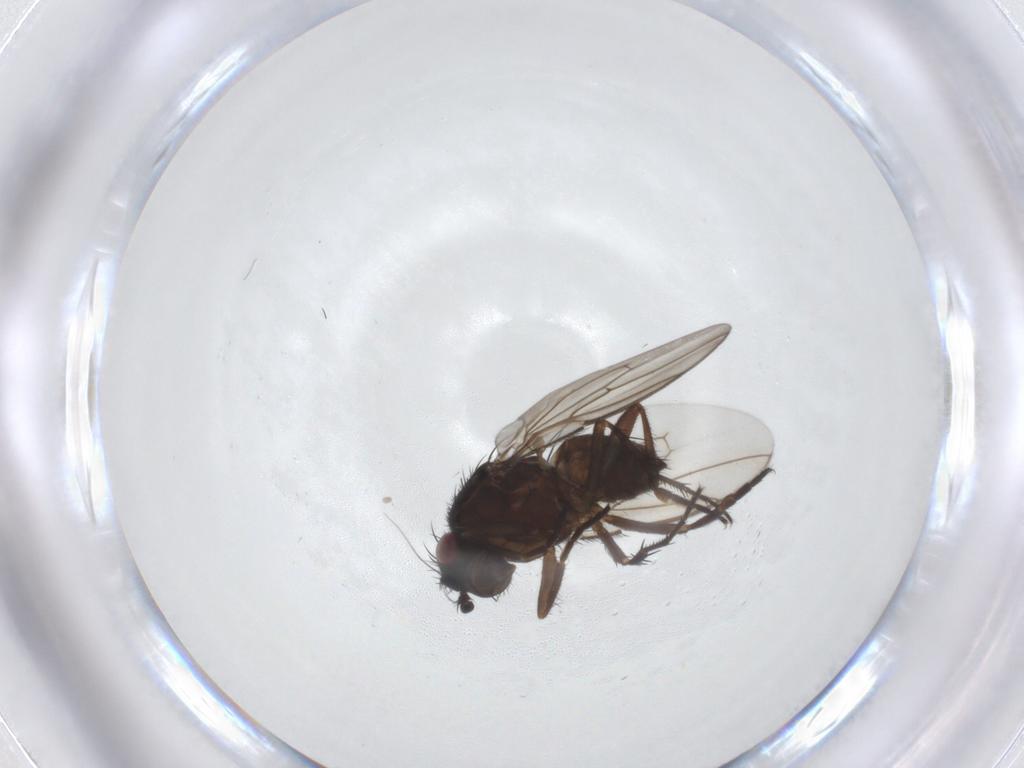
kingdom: Animalia
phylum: Arthropoda
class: Insecta
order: Diptera
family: Sphaeroceridae
